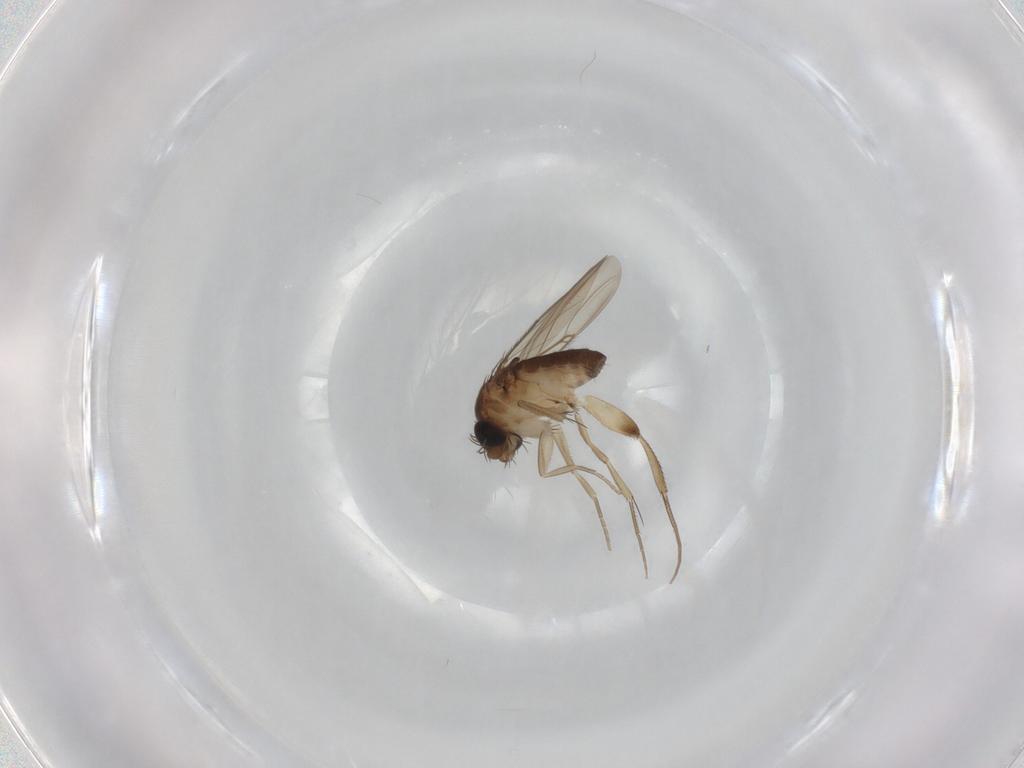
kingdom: Animalia
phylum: Arthropoda
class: Insecta
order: Diptera
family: Phoridae
